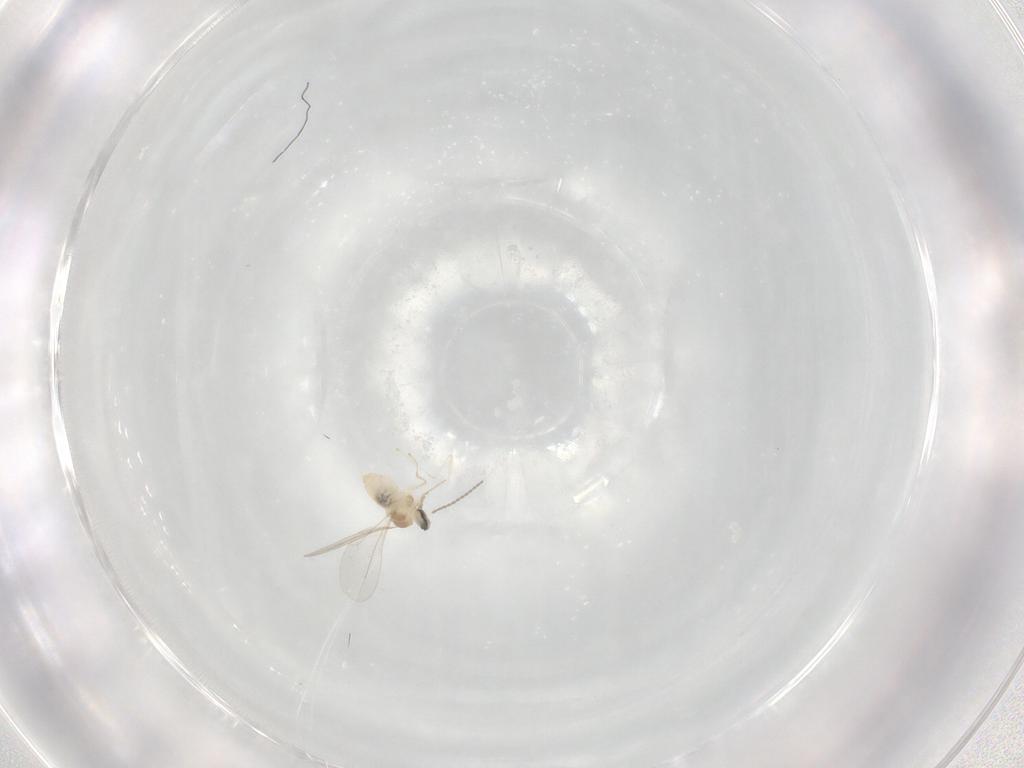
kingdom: Animalia
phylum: Arthropoda
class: Insecta
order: Diptera
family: Cecidomyiidae
